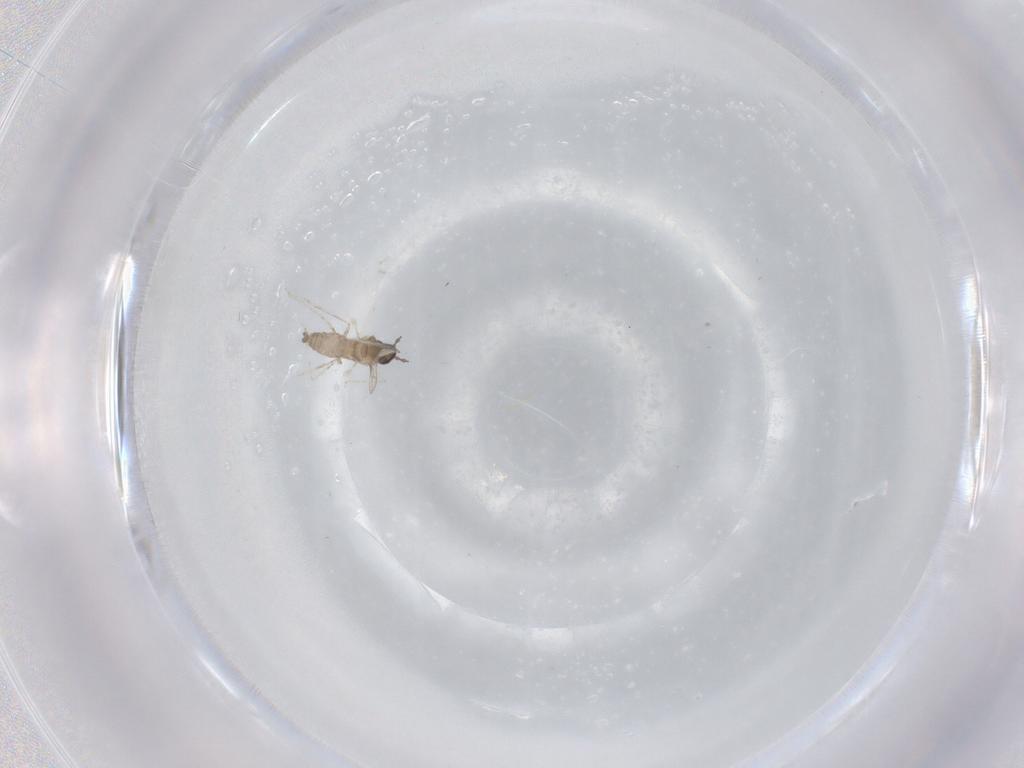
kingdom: Animalia
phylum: Arthropoda
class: Insecta
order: Diptera
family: Cecidomyiidae
